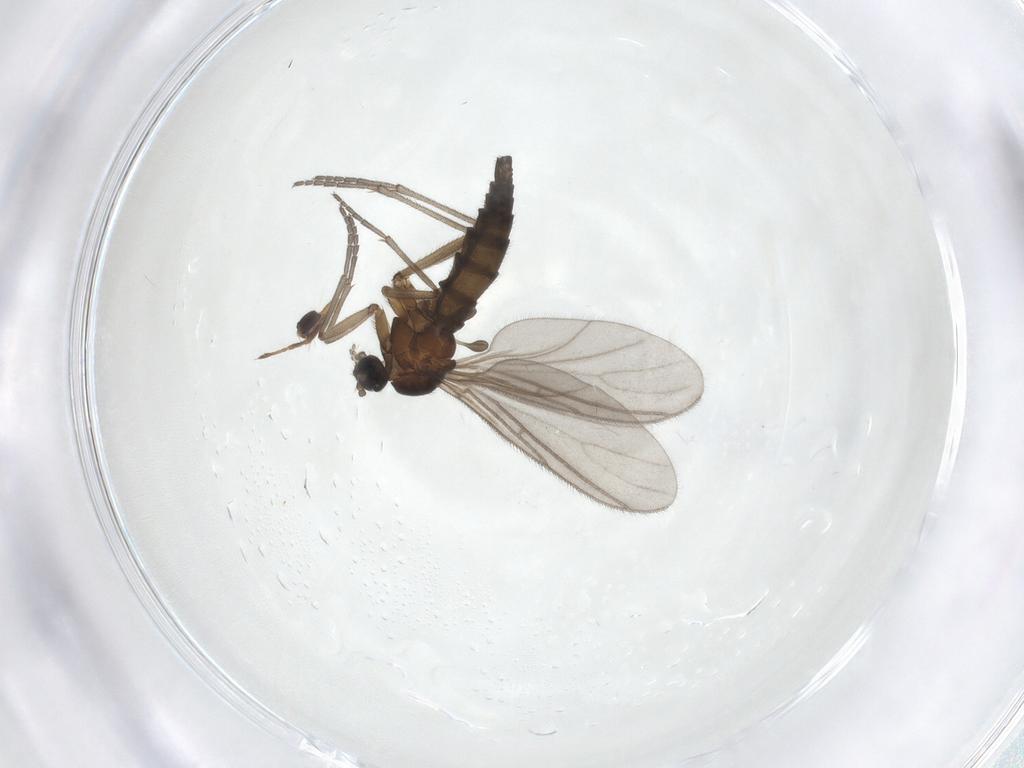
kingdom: Animalia
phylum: Arthropoda
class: Insecta
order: Diptera
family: Sciaridae
